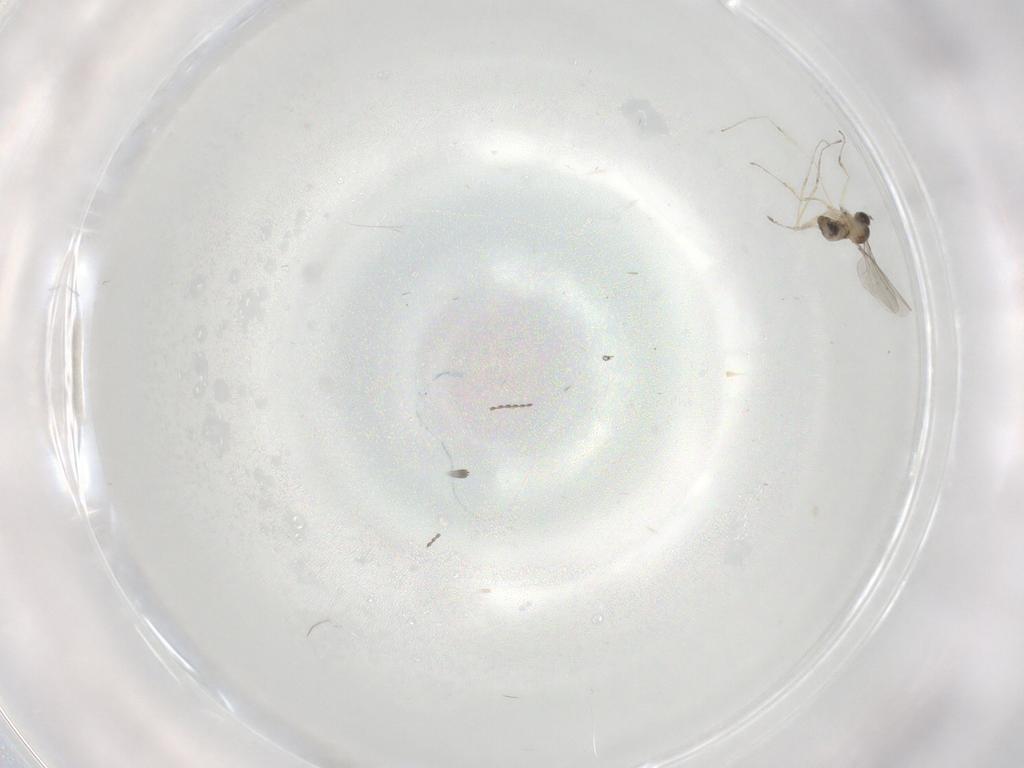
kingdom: Animalia
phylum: Arthropoda
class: Insecta
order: Diptera
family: Cecidomyiidae
